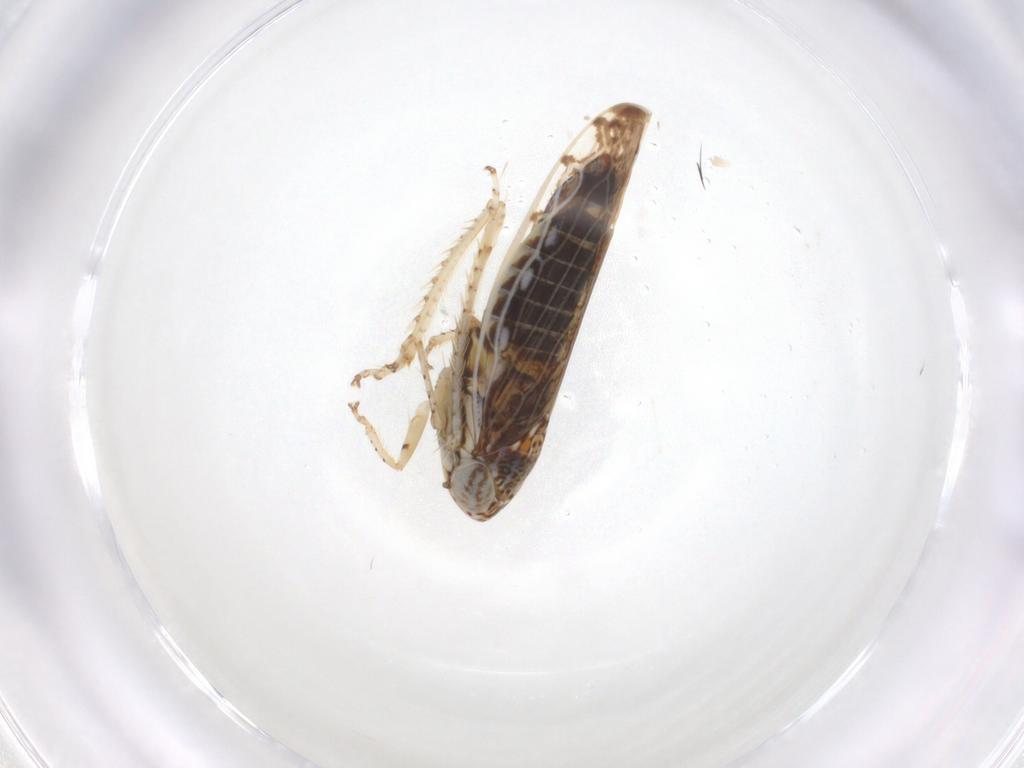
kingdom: Animalia
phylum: Arthropoda
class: Insecta
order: Hemiptera
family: Cicadellidae
